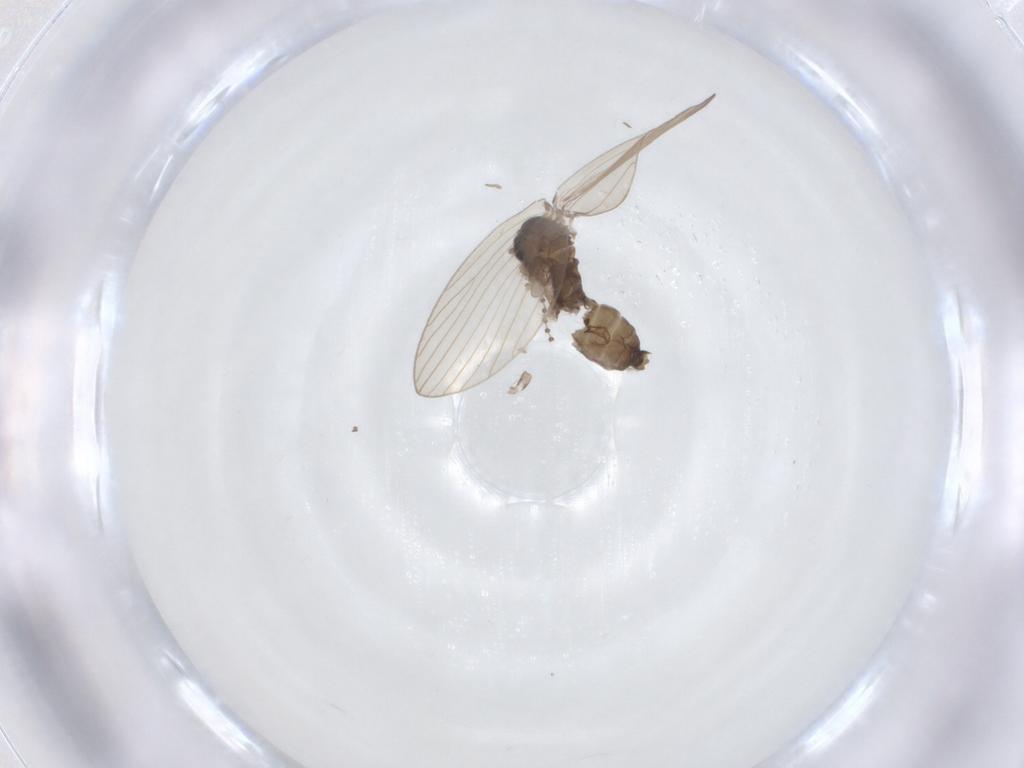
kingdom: Animalia
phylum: Arthropoda
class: Insecta
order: Diptera
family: Psychodidae
